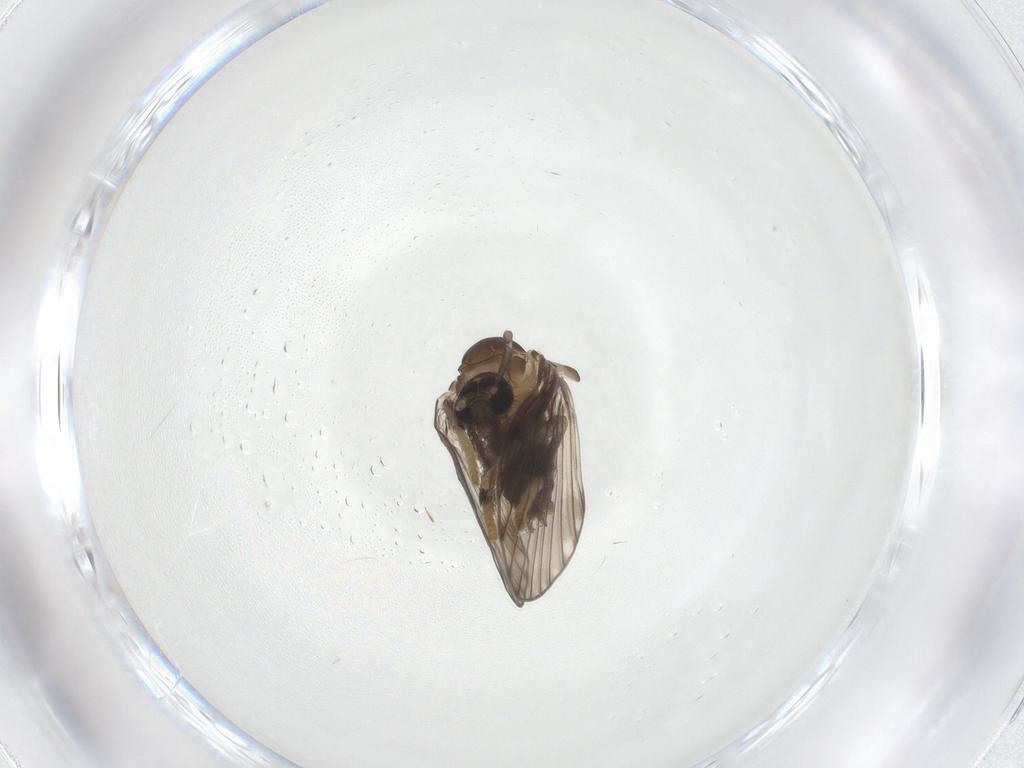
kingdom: Animalia
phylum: Arthropoda
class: Insecta
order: Diptera
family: Psychodidae
